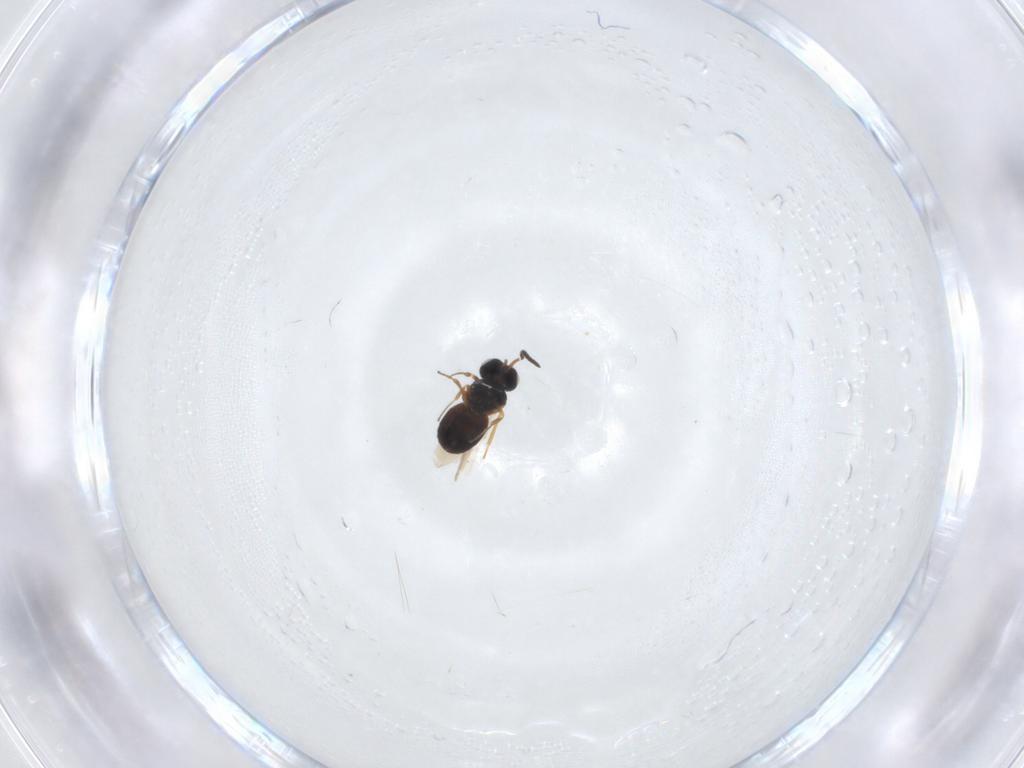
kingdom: Animalia
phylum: Arthropoda
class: Insecta
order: Hymenoptera
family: Scelionidae
